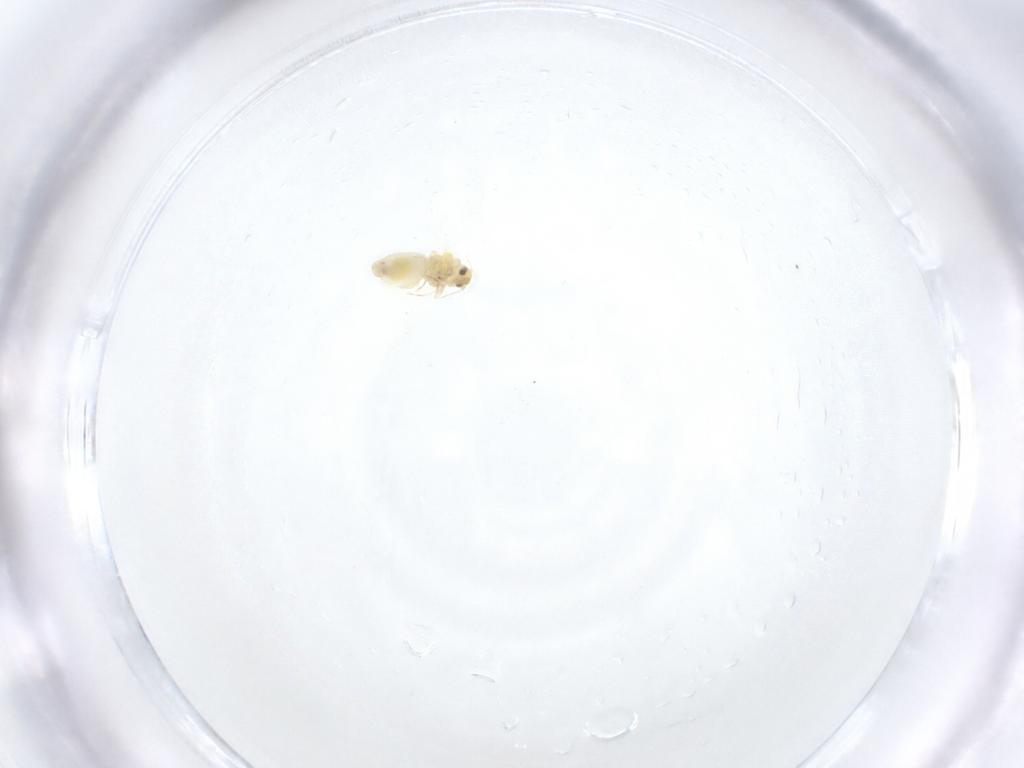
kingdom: Animalia
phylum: Arthropoda
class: Insecta
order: Hemiptera
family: Aleyrodidae
